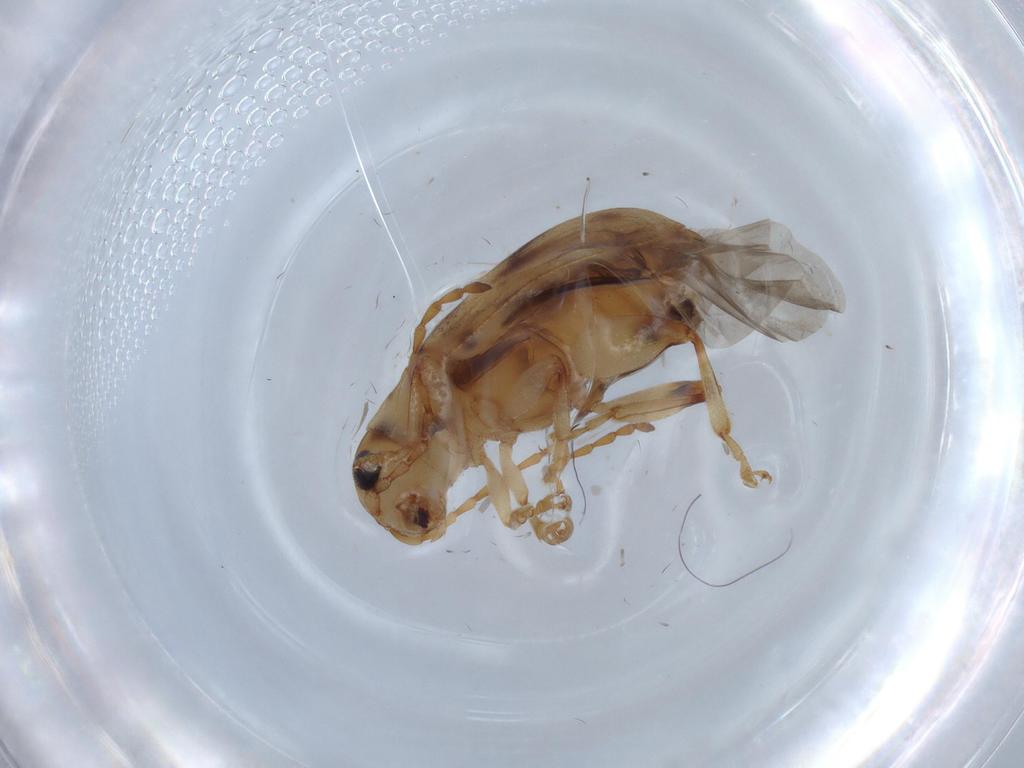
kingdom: Animalia
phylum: Arthropoda
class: Insecta
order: Coleoptera
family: Chrysomelidae
